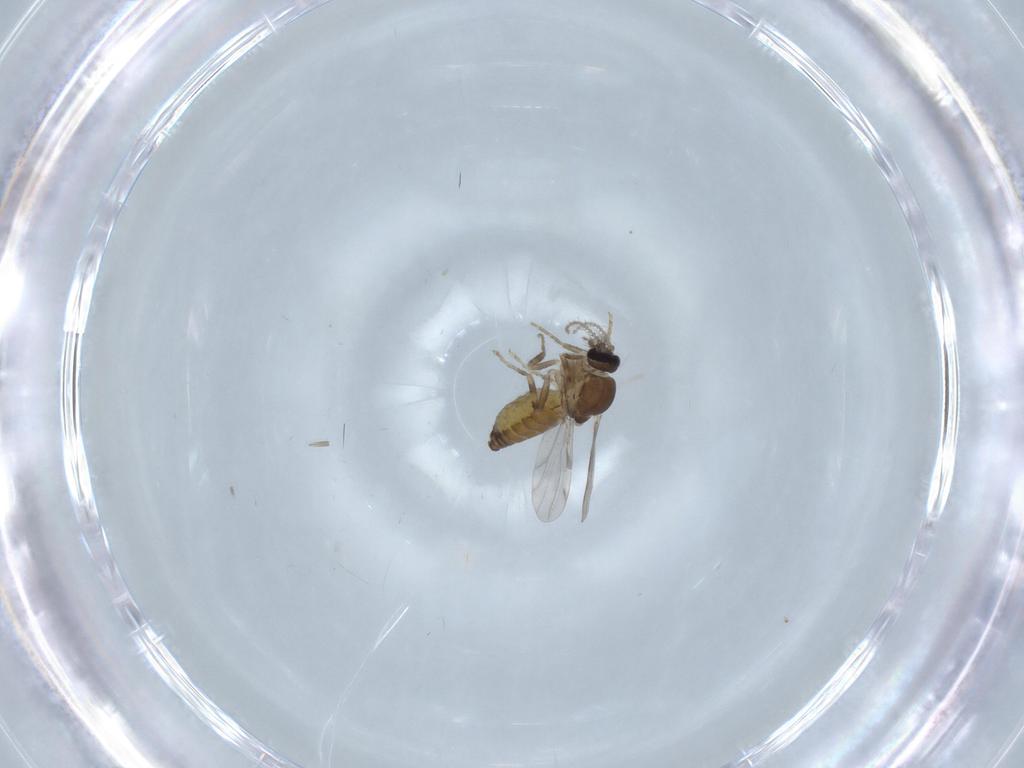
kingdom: Animalia
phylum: Arthropoda
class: Insecta
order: Diptera
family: Ceratopogonidae
